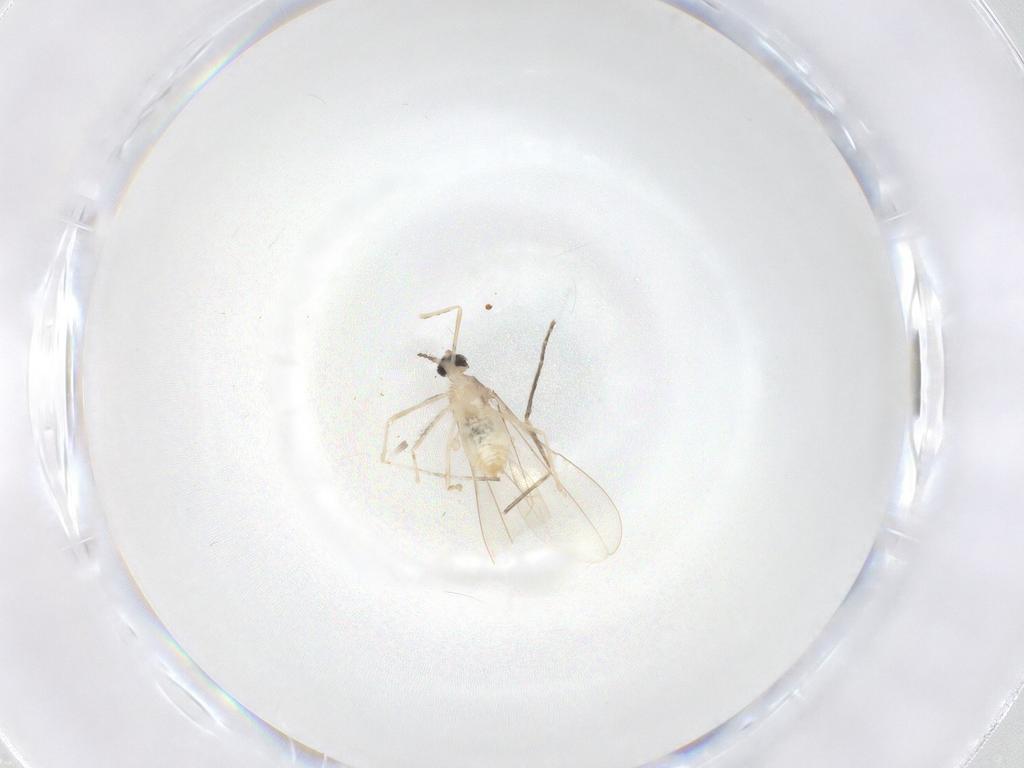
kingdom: Animalia
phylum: Arthropoda
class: Insecta
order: Diptera
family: Cecidomyiidae
